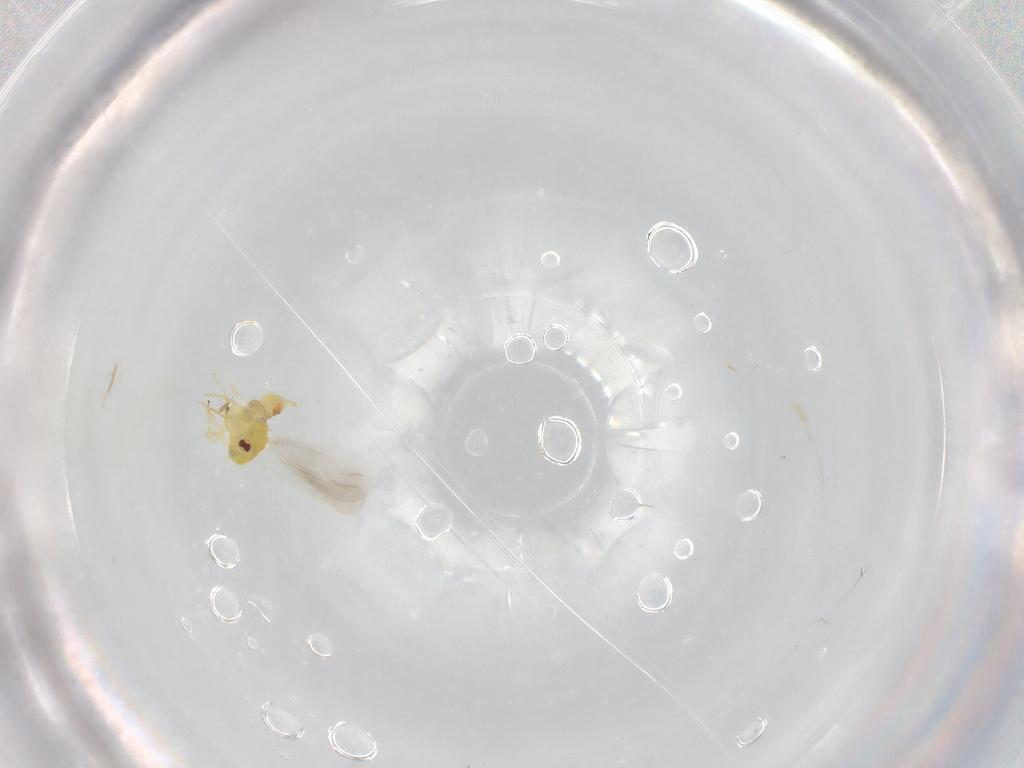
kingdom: Animalia
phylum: Arthropoda
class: Insecta
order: Hemiptera
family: Aleyrodidae
